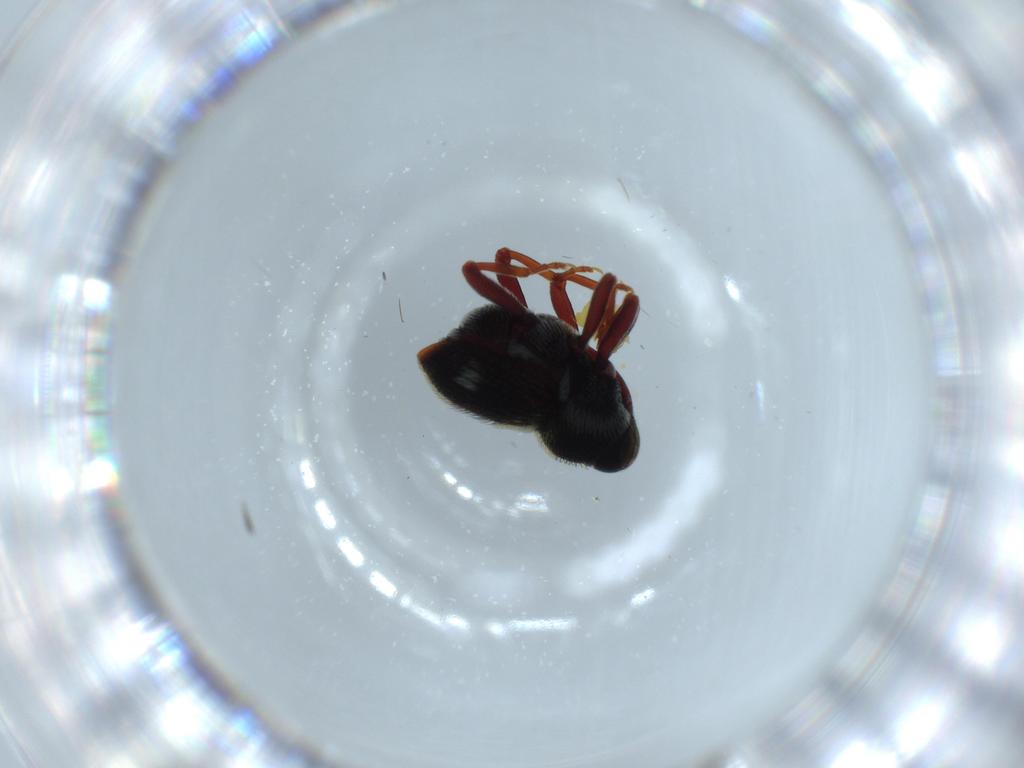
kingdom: Animalia
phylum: Arthropoda
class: Insecta
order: Coleoptera
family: Curculionidae
